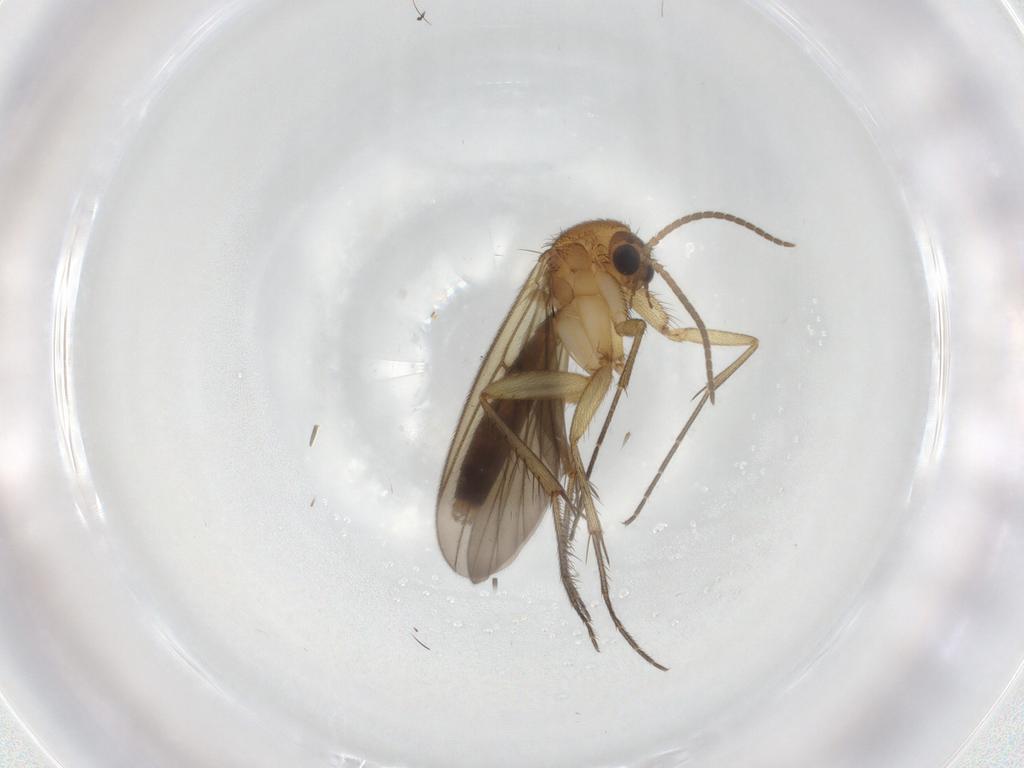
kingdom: Animalia
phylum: Arthropoda
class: Insecta
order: Diptera
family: Mycetophilidae
